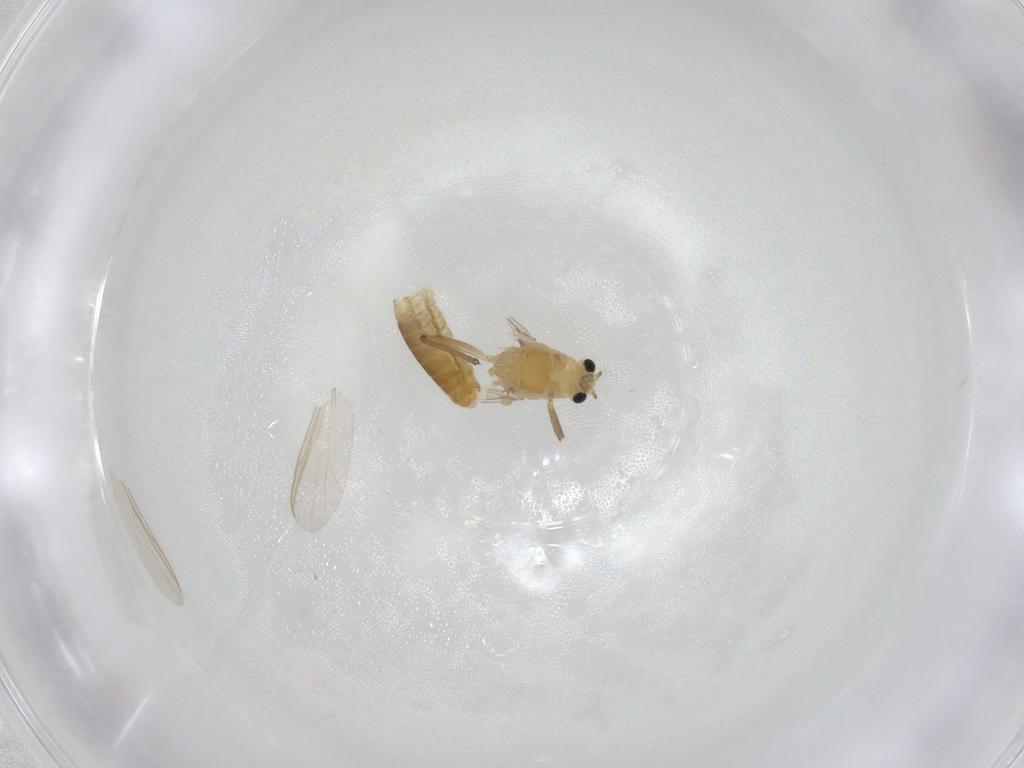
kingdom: Animalia
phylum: Arthropoda
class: Insecta
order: Diptera
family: Chironomidae
